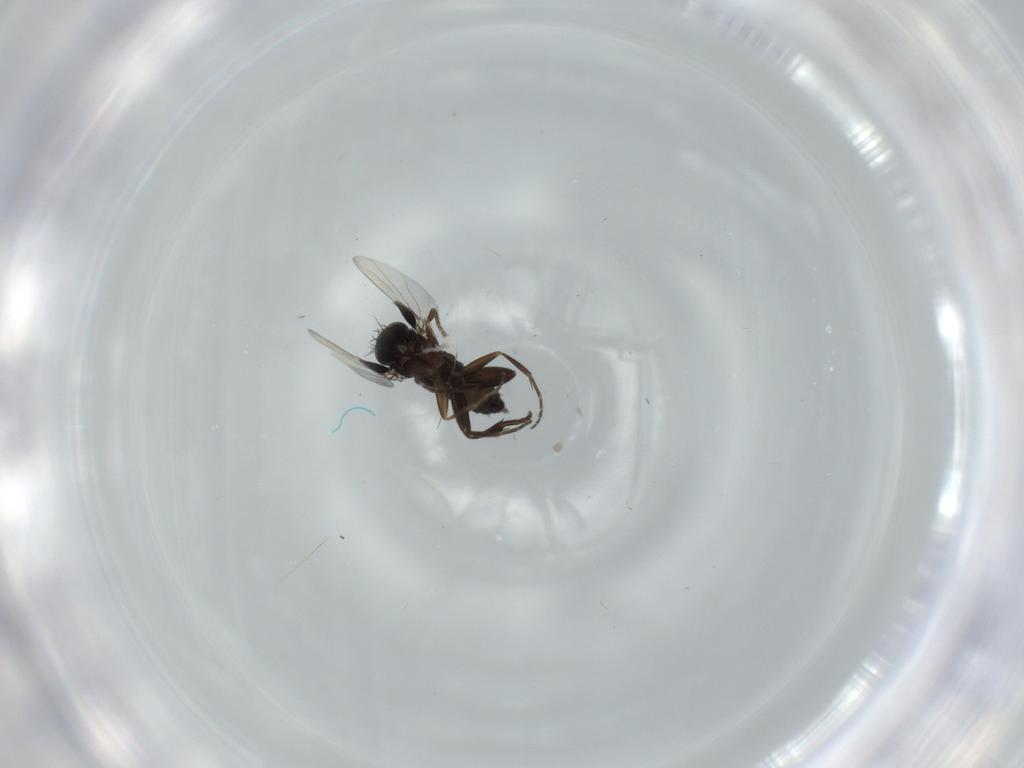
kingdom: Animalia
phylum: Arthropoda
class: Insecta
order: Diptera
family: Phoridae
